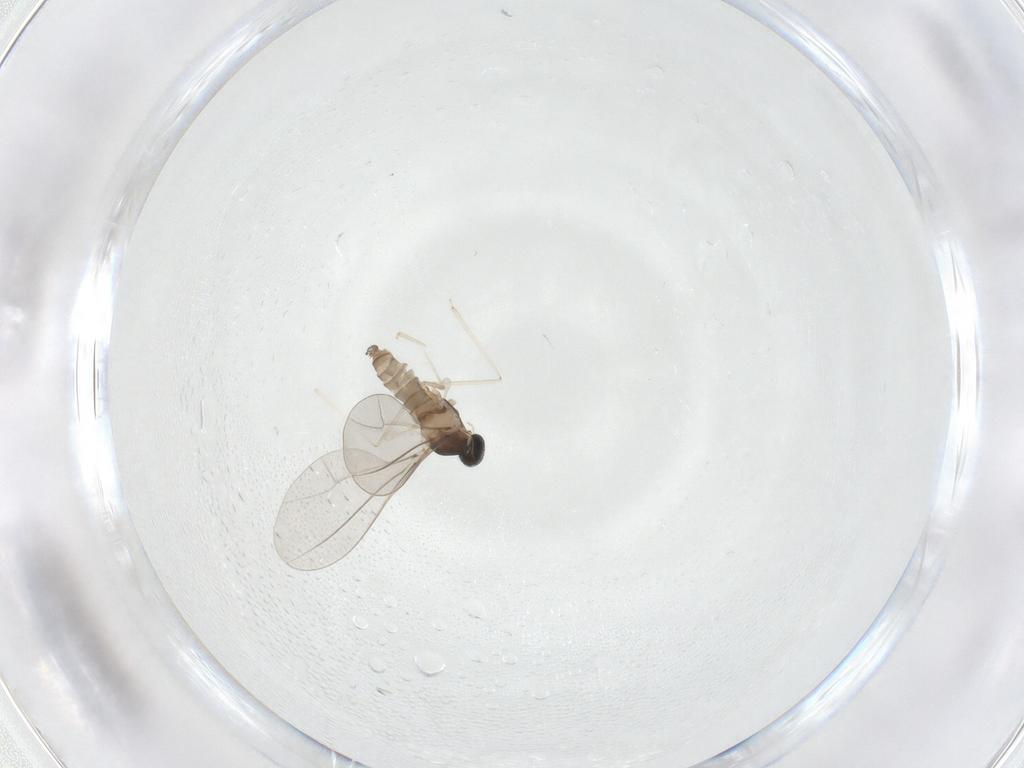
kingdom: Animalia
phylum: Arthropoda
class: Insecta
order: Diptera
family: Cecidomyiidae
